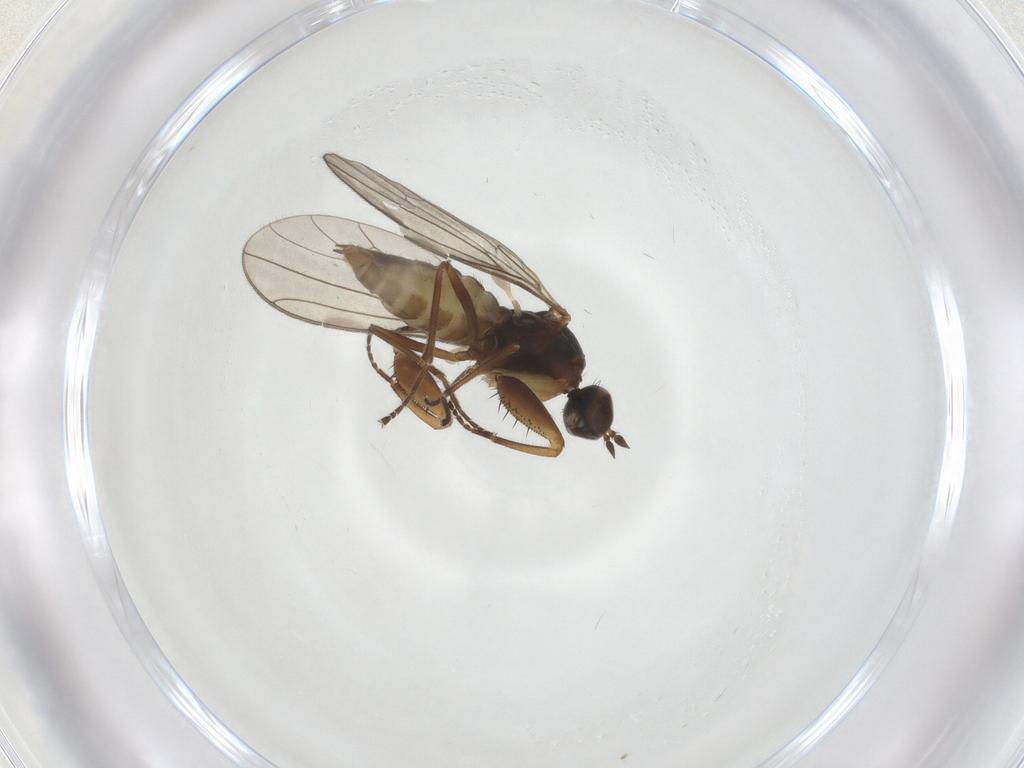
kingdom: Animalia
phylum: Arthropoda
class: Insecta
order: Diptera
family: Empididae
